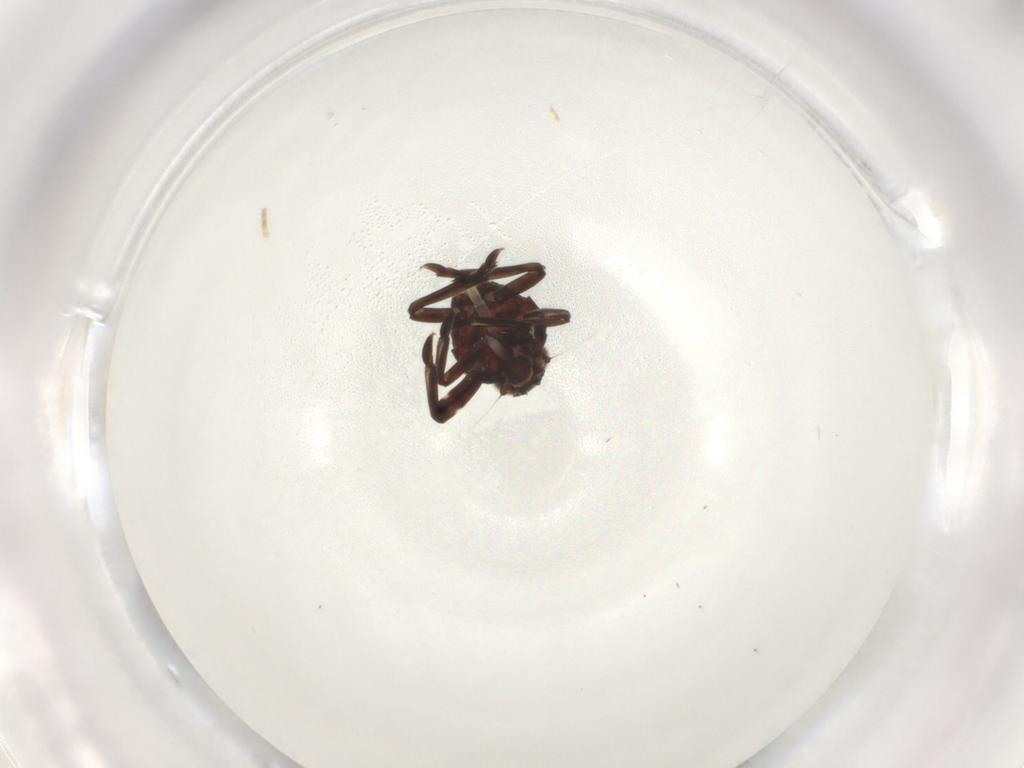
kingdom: Animalia
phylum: Arthropoda
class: Insecta
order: Hemiptera
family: Dictyopharidae
